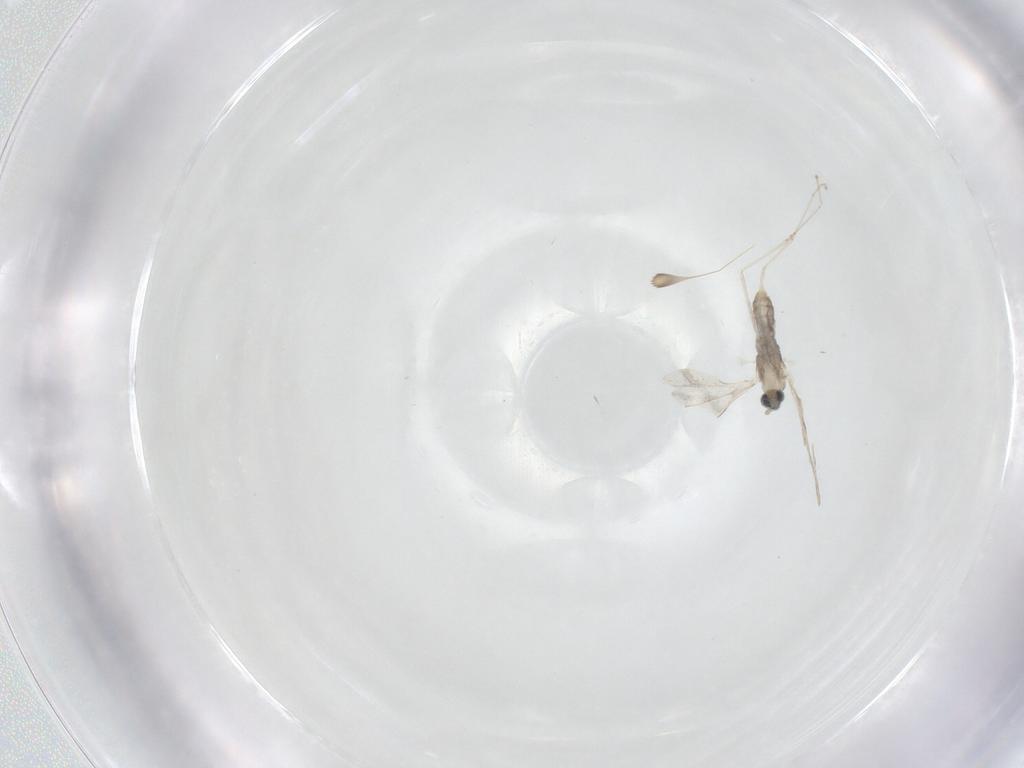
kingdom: Animalia
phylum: Arthropoda
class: Insecta
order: Diptera
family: Cecidomyiidae
